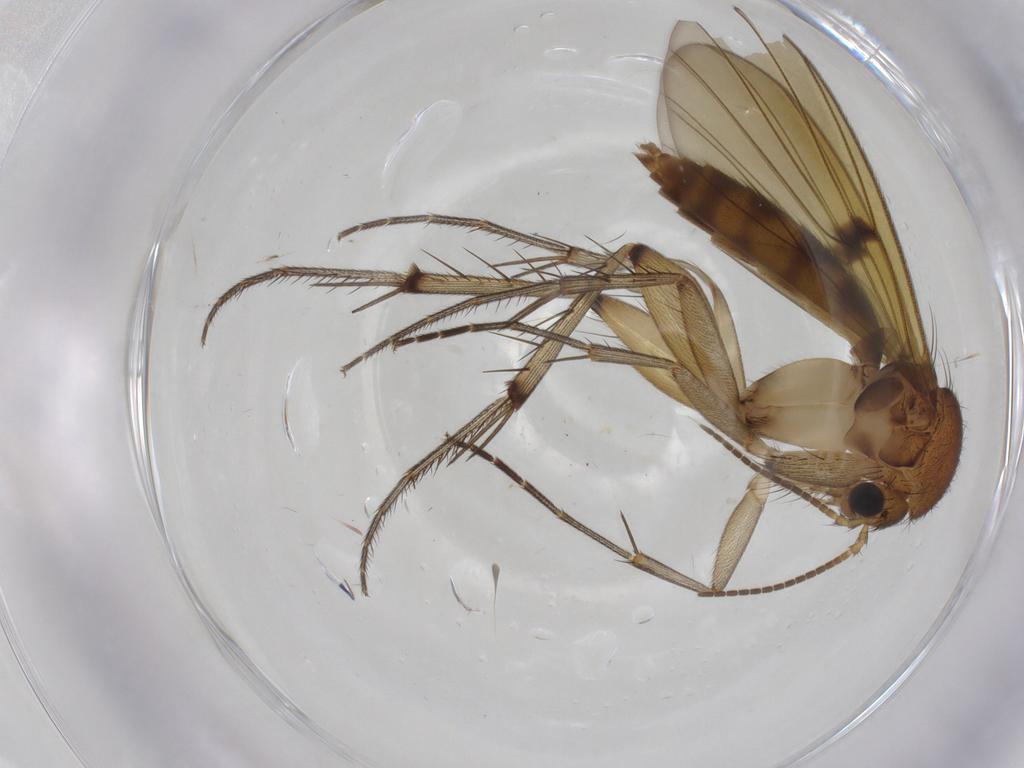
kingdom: Animalia
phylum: Arthropoda
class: Insecta
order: Diptera
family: Mycetophilidae
